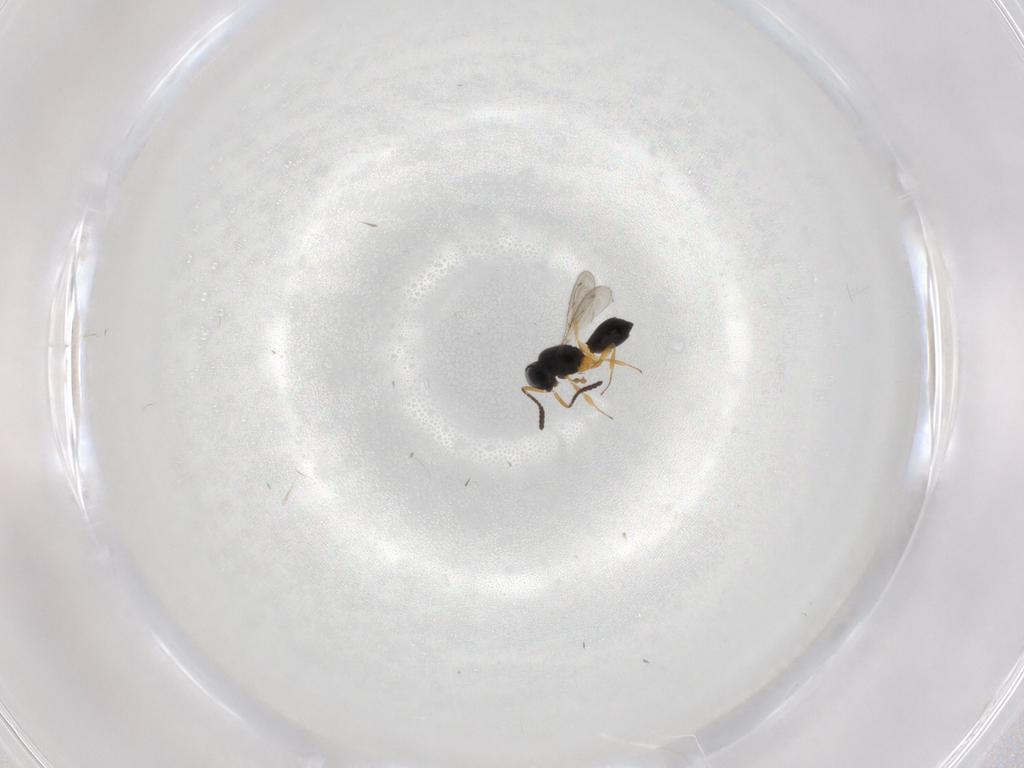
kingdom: Animalia
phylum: Arthropoda
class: Insecta
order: Hymenoptera
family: Scelionidae
